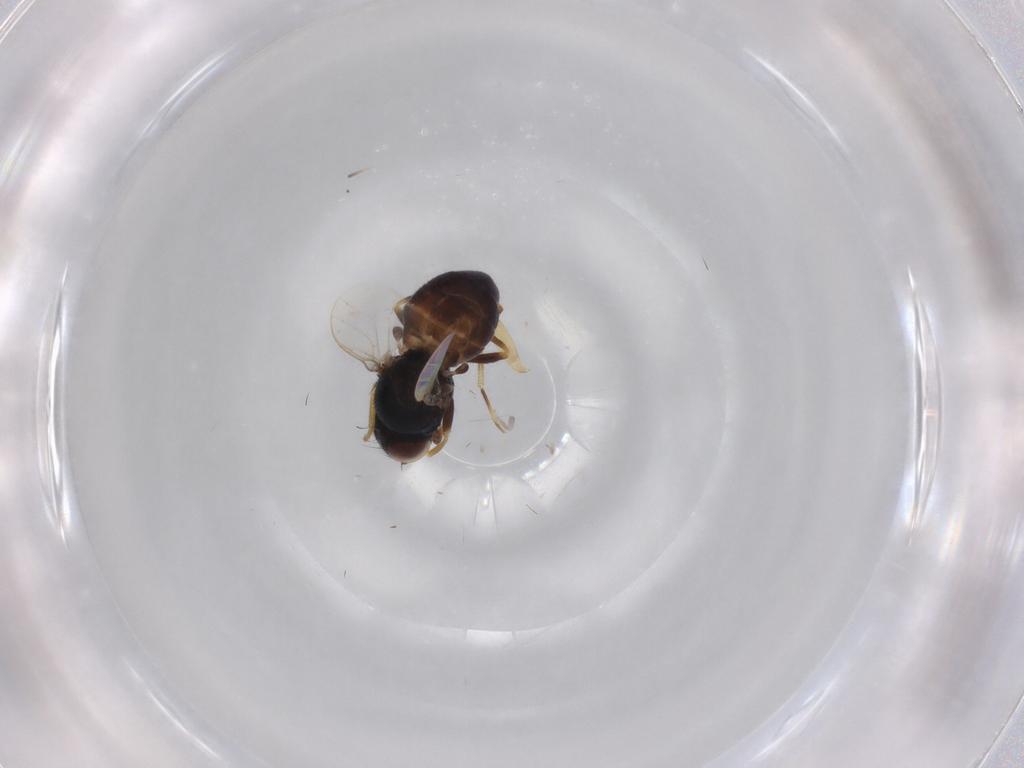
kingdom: Animalia
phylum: Arthropoda
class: Insecta
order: Diptera
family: Chloropidae
